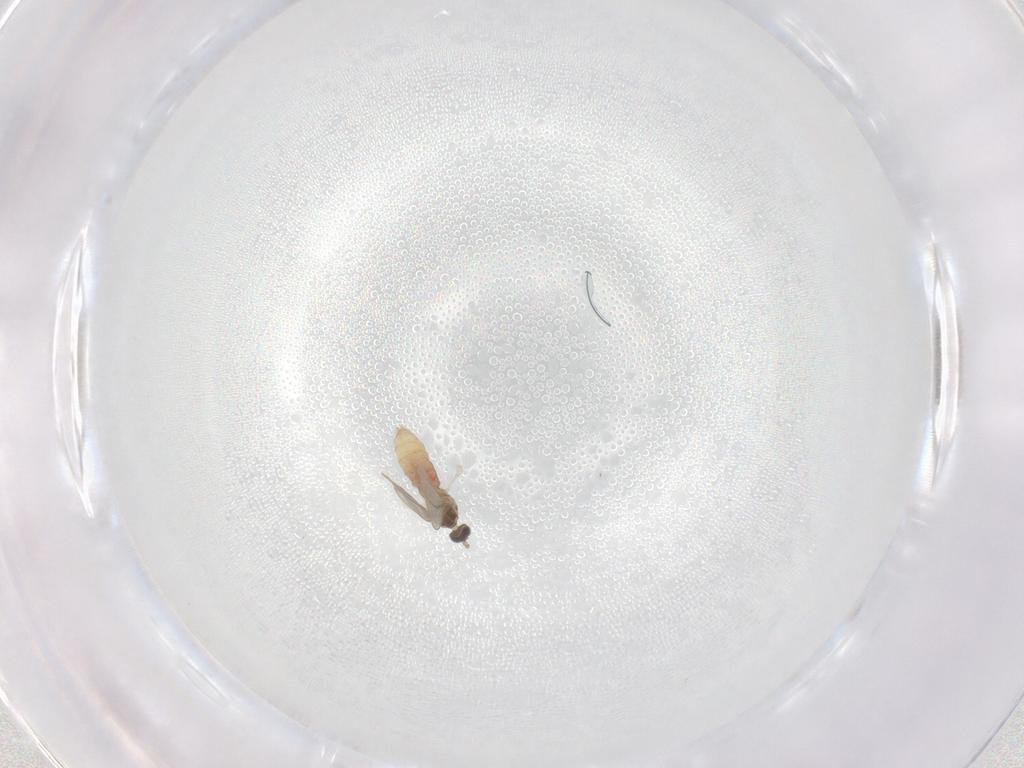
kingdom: Animalia
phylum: Arthropoda
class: Insecta
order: Diptera
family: Cecidomyiidae
